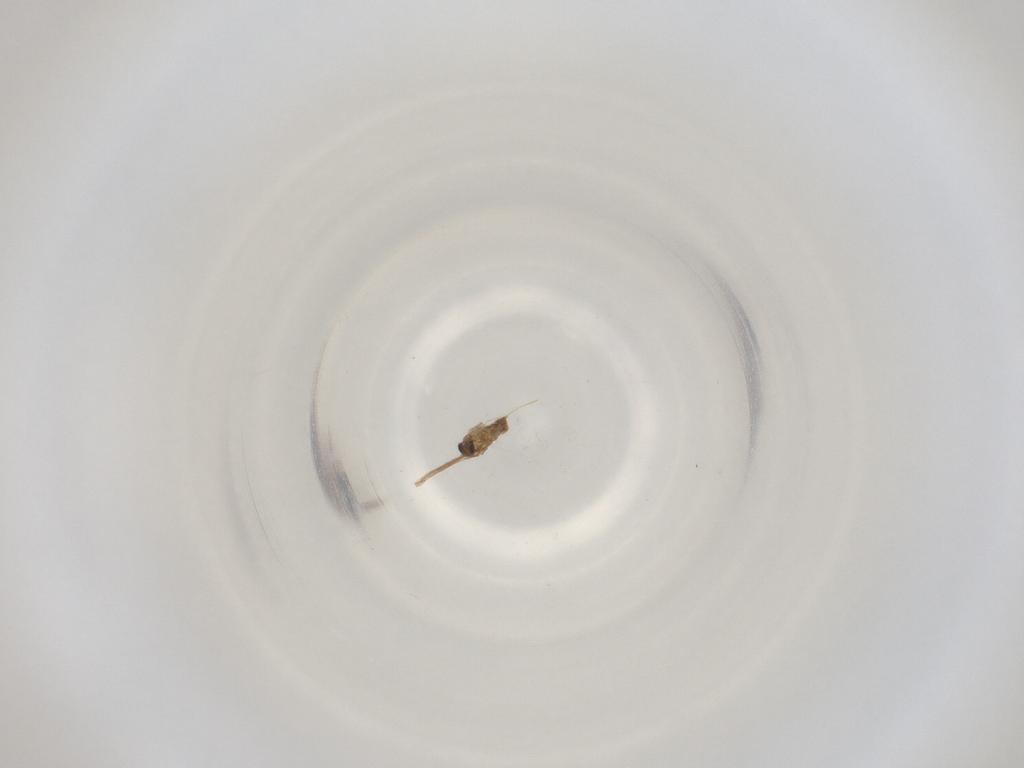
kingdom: Animalia
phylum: Arthropoda
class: Insecta
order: Diptera
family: Cecidomyiidae
